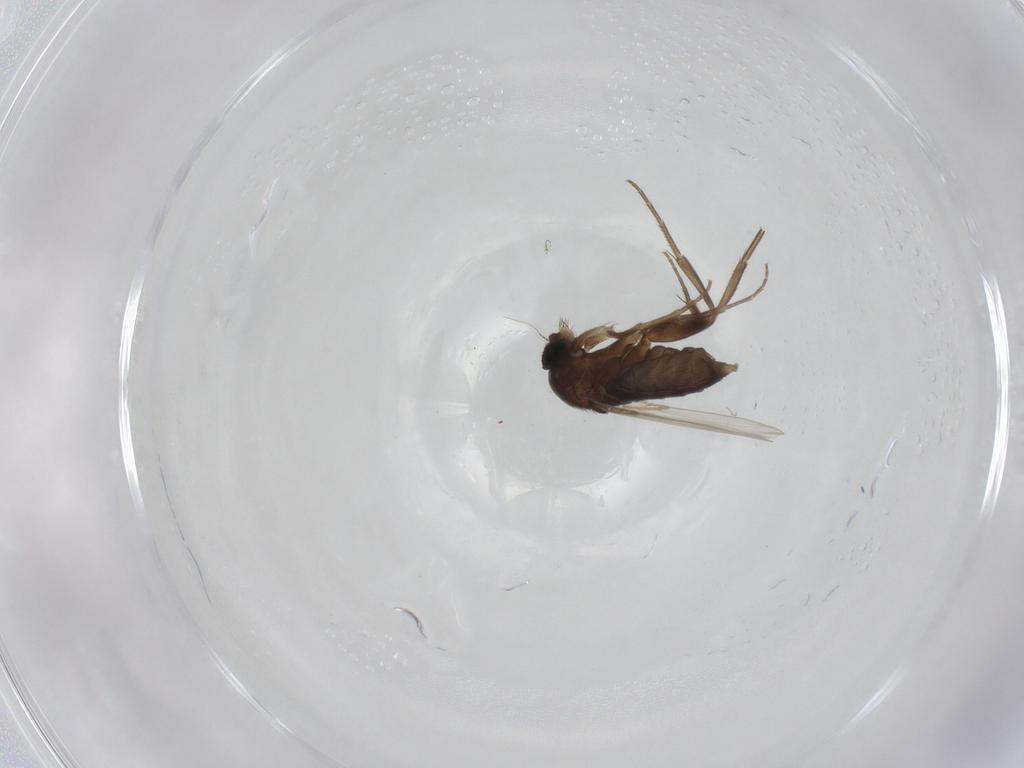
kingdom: Animalia
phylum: Arthropoda
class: Insecta
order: Diptera
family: Phoridae
